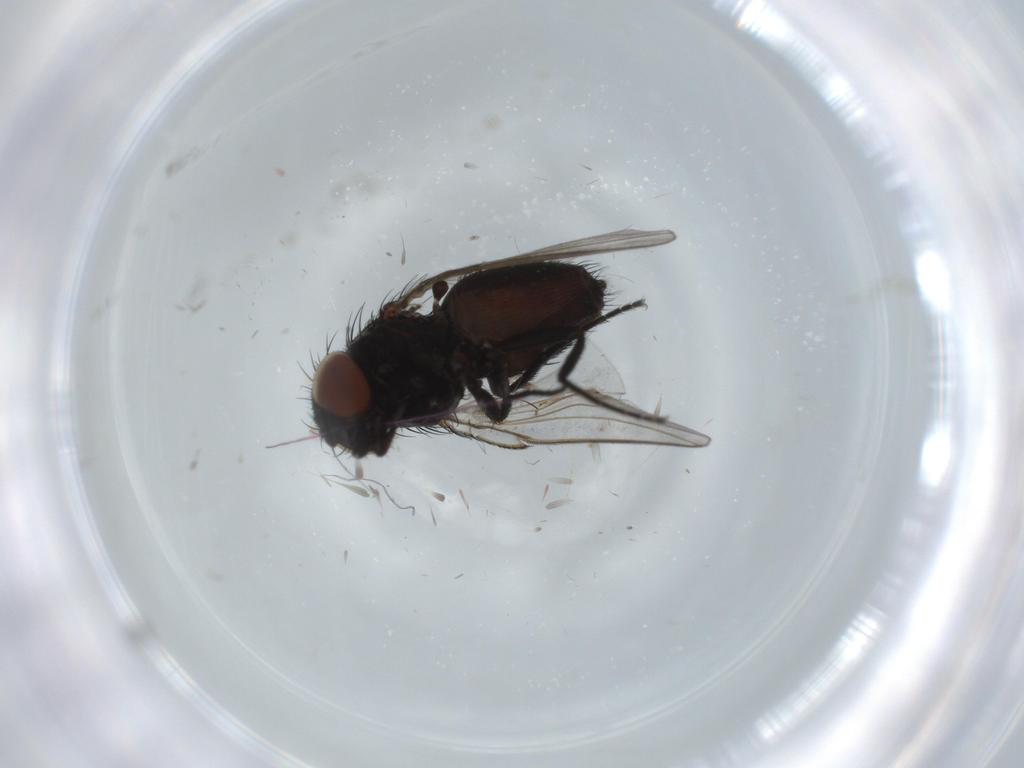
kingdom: Animalia
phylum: Arthropoda
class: Insecta
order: Diptera
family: Milichiidae
